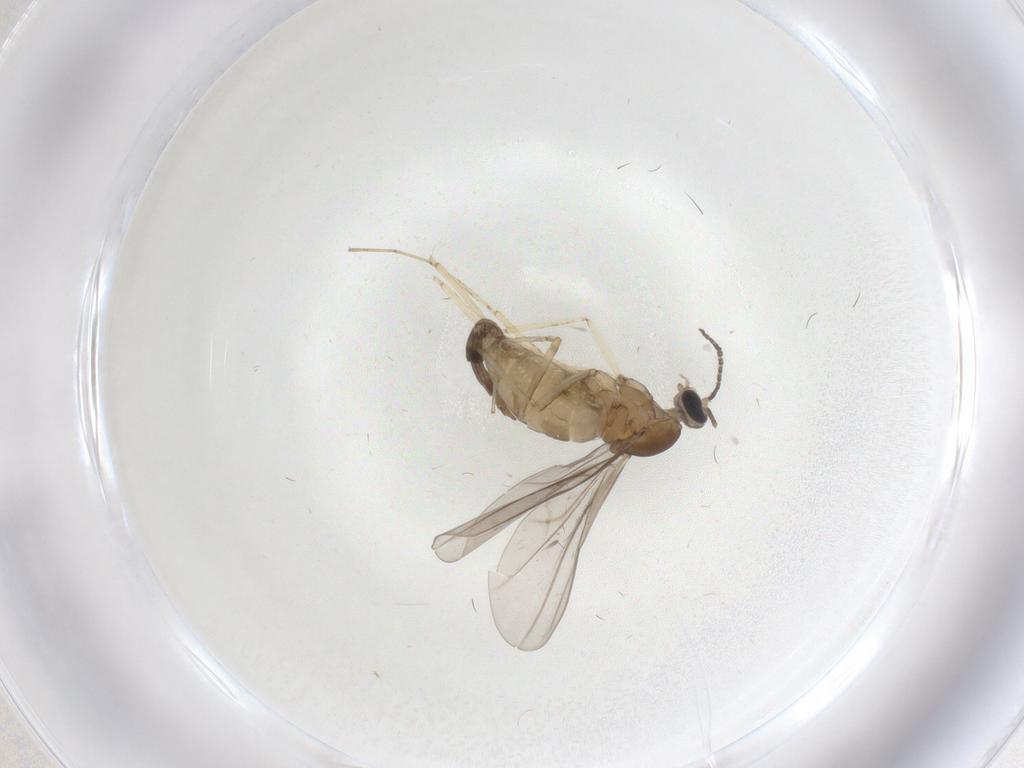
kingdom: Animalia
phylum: Arthropoda
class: Insecta
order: Diptera
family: Cecidomyiidae
